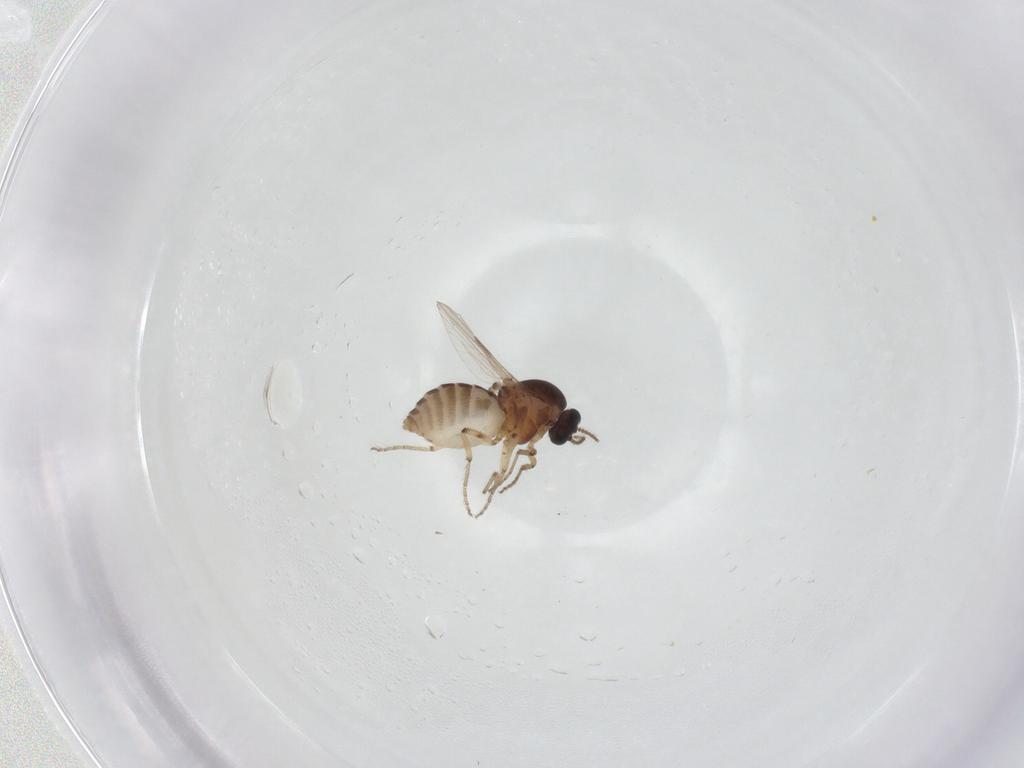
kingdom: Animalia
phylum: Arthropoda
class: Insecta
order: Diptera
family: Ceratopogonidae
